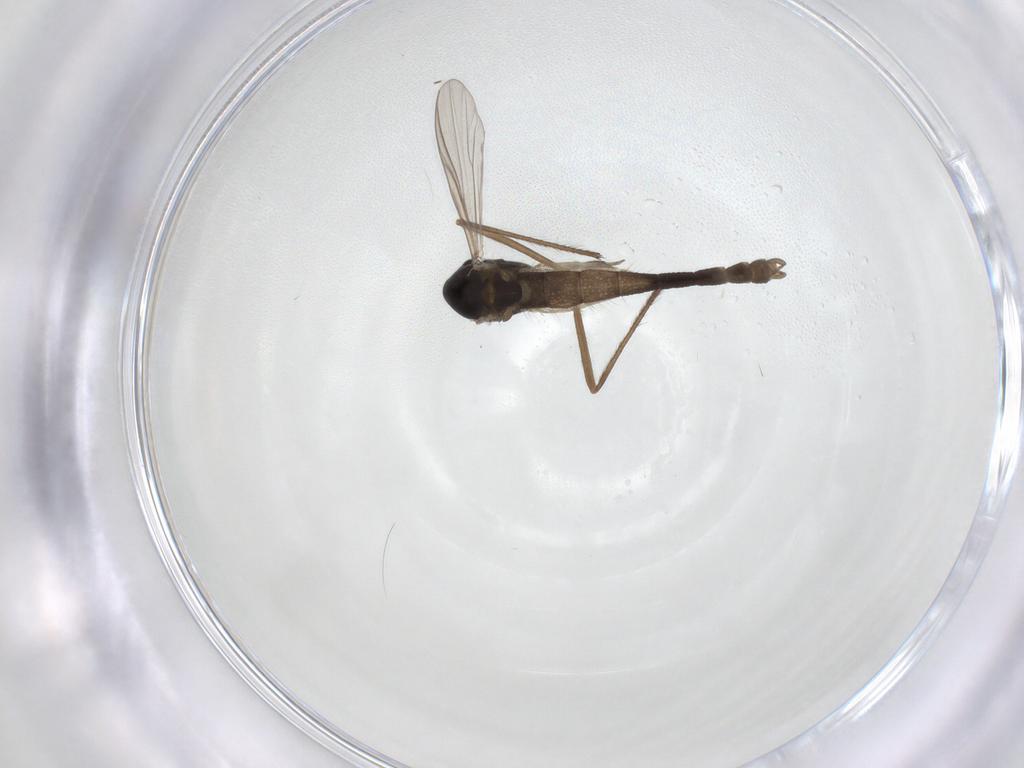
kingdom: Animalia
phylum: Arthropoda
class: Insecta
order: Diptera
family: Chironomidae
